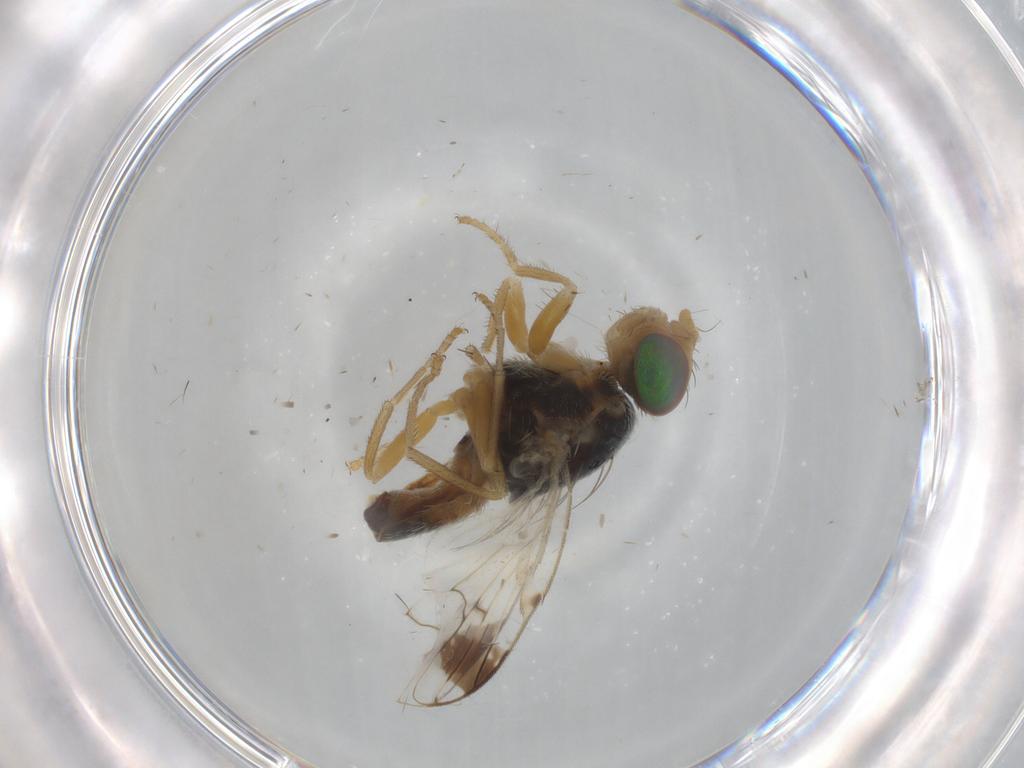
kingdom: Animalia
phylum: Arthropoda
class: Insecta
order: Diptera
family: Tephritidae
